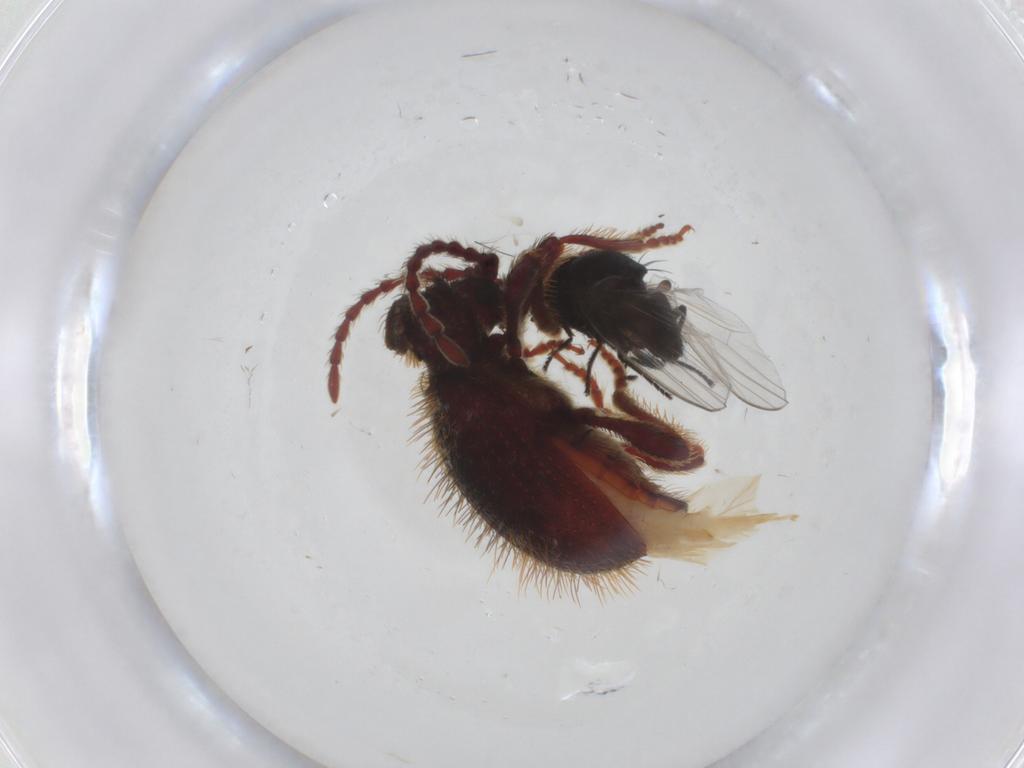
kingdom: Animalia
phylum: Arthropoda
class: Insecta
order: Diptera
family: Milichiidae
